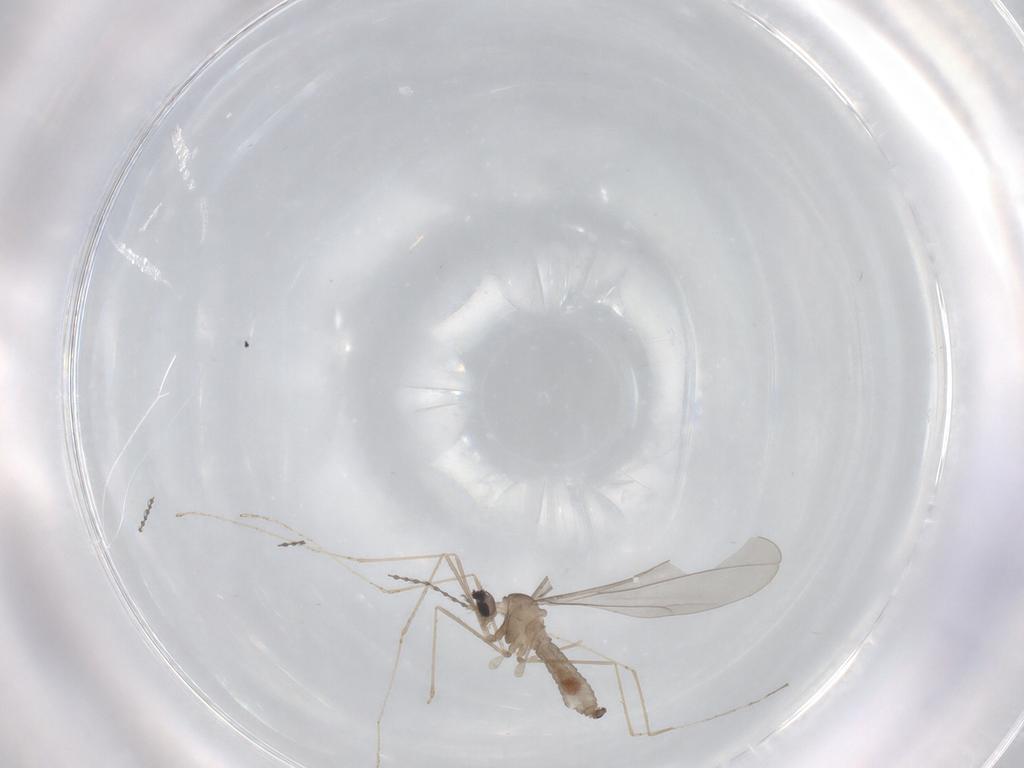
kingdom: Animalia
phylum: Arthropoda
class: Insecta
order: Diptera
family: Cecidomyiidae
